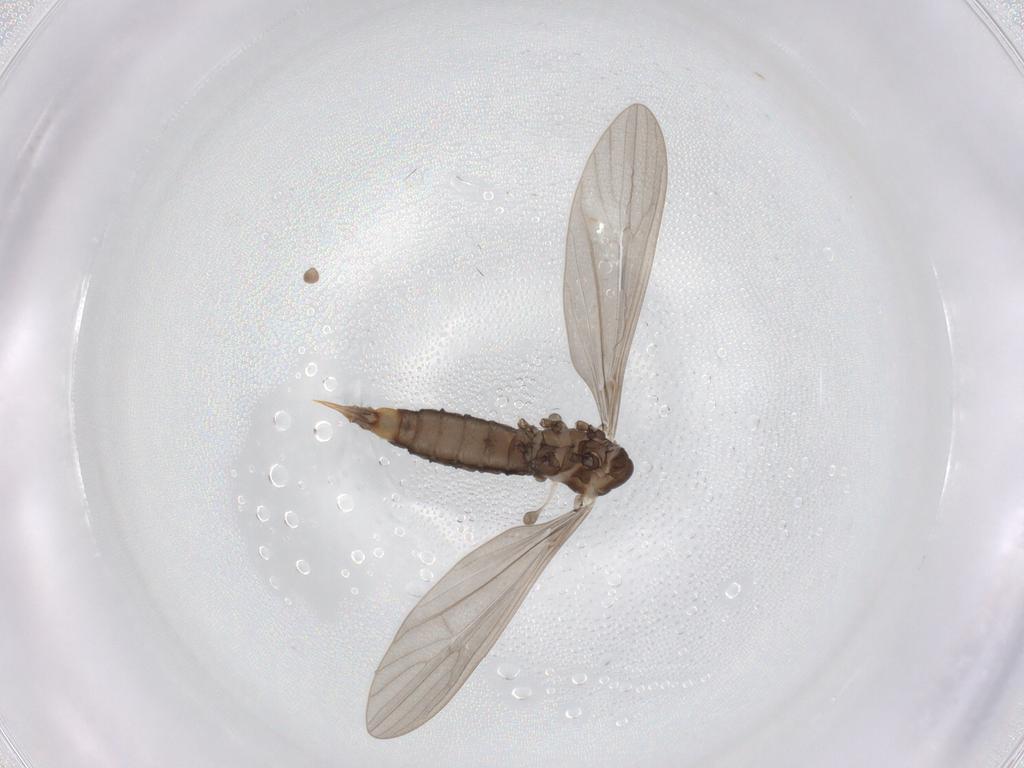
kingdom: Animalia
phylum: Arthropoda
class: Insecta
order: Diptera
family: Limoniidae
